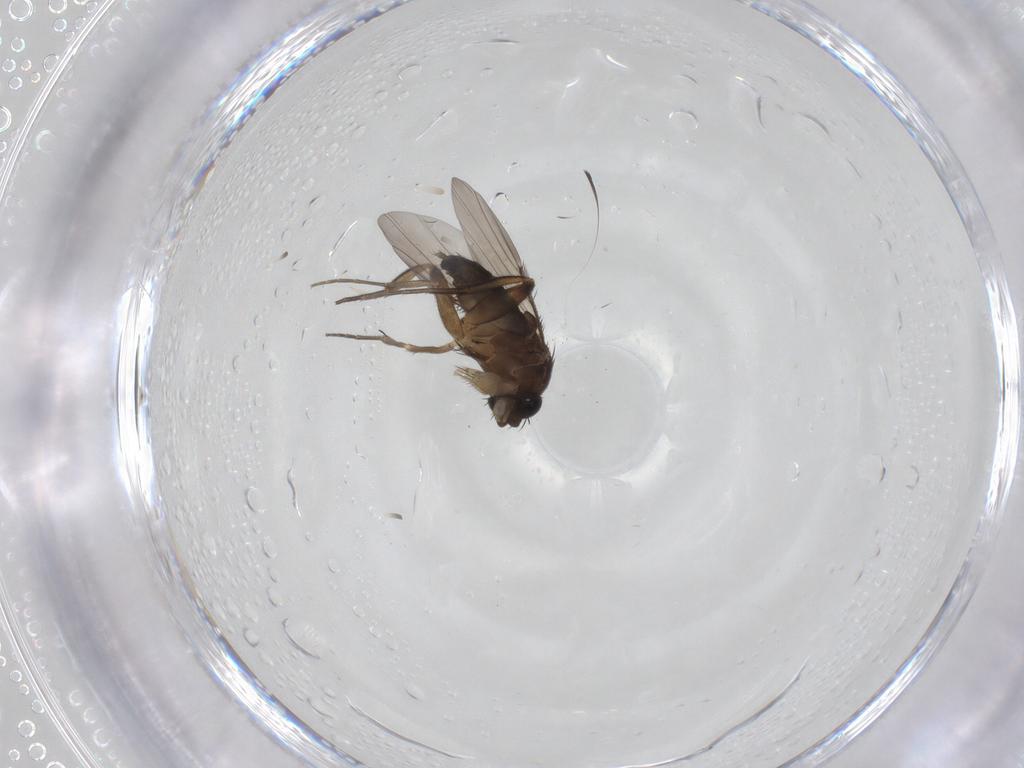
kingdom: Animalia
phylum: Arthropoda
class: Insecta
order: Diptera
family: Phoridae
